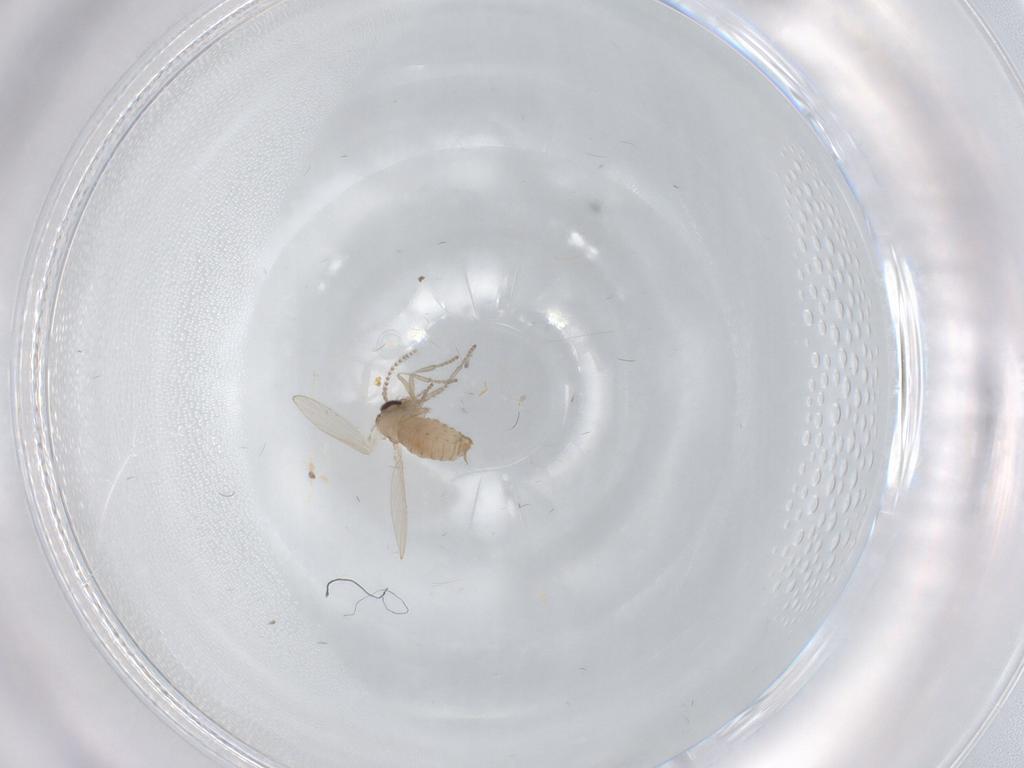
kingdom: Animalia
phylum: Arthropoda
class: Insecta
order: Diptera
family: Psychodidae
